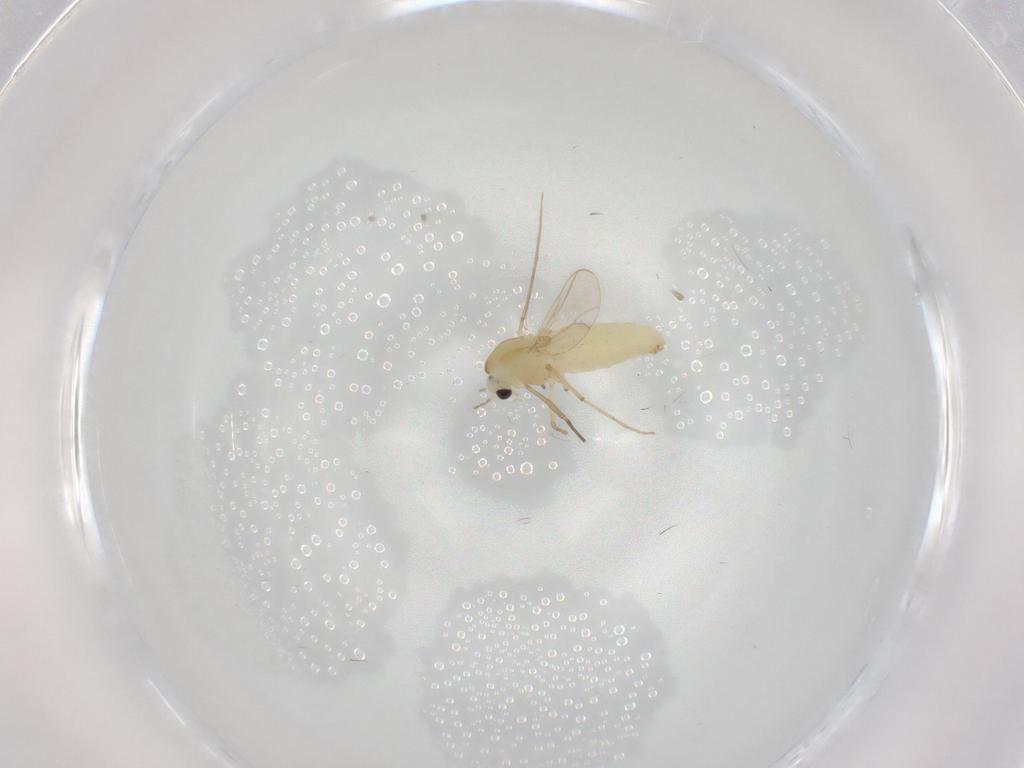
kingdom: Animalia
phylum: Arthropoda
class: Insecta
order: Diptera
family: Chironomidae
